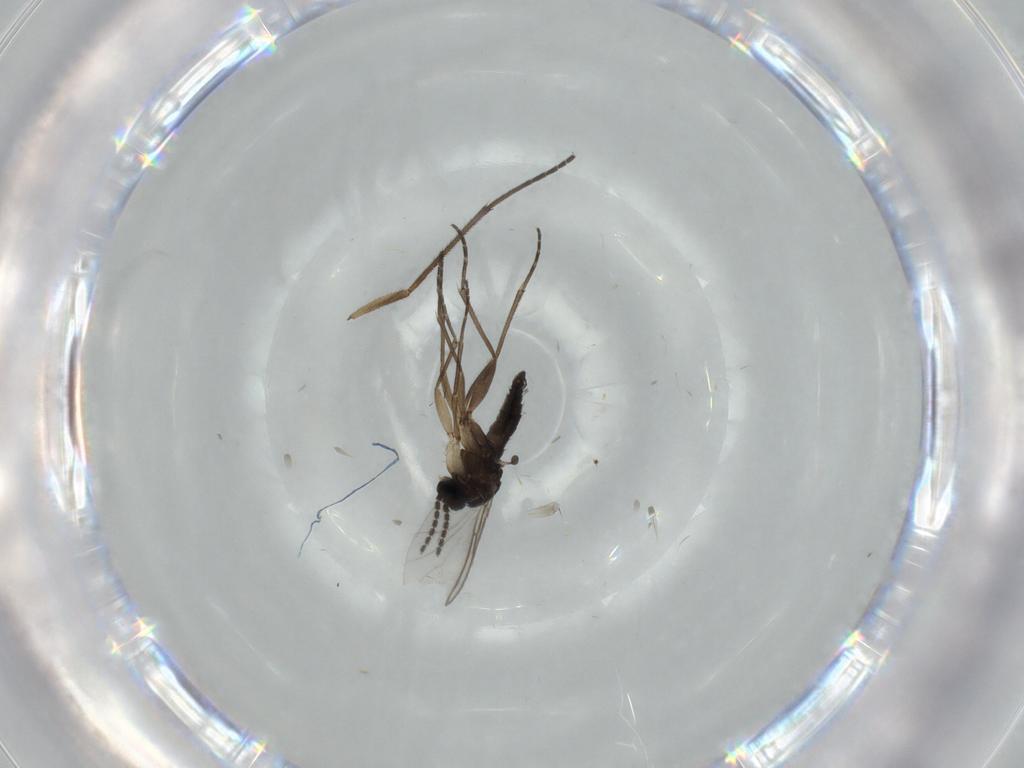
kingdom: Animalia
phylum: Arthropoda
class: Insecta
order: Diptera
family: Sciaridae
